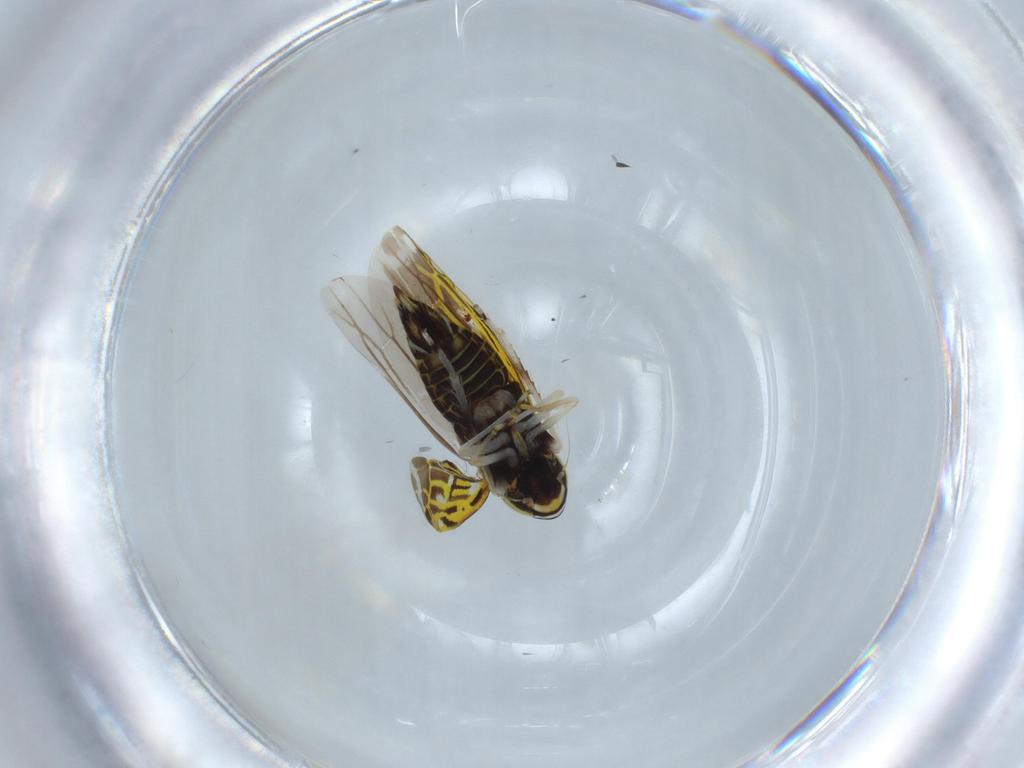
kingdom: Animalia
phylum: Arthropoda
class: Insecta
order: Hemiptera
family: Cicadellidae
